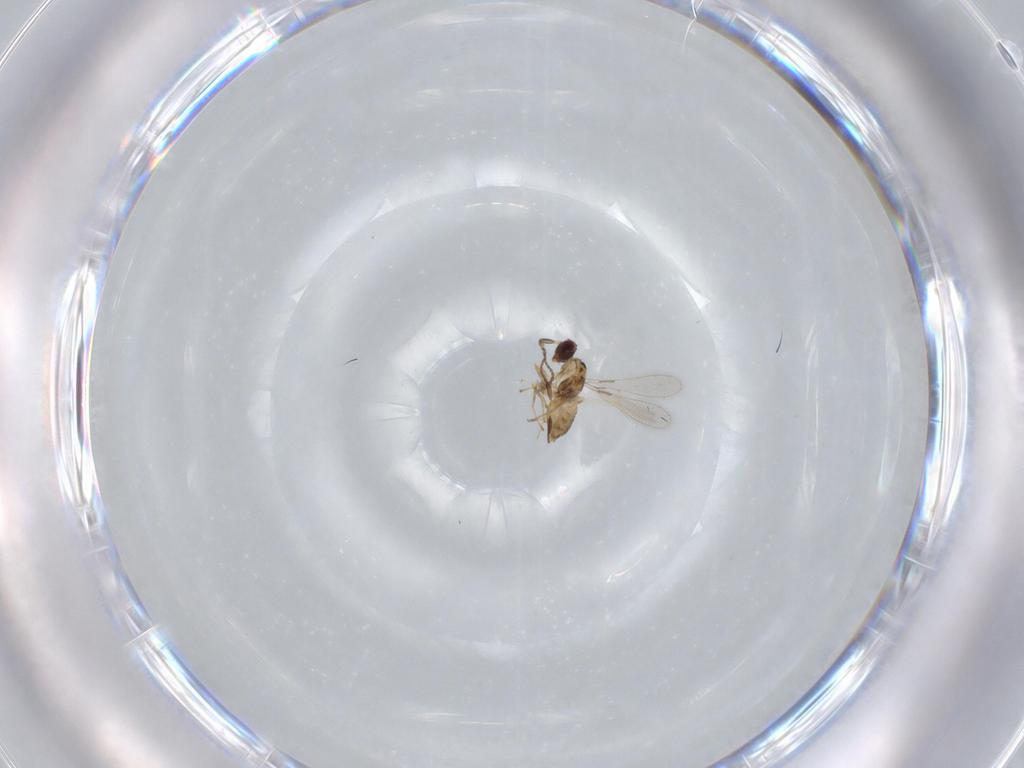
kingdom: Animalia
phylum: Arthropoda
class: Insecta
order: Hymenoptera
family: Mymaridae
